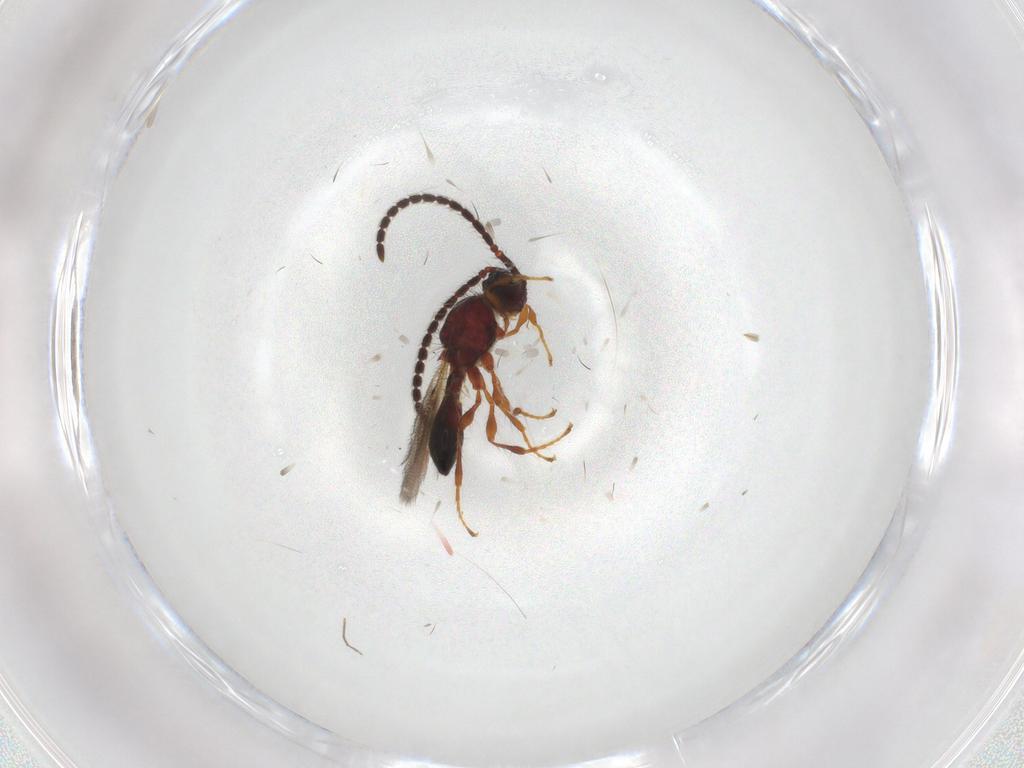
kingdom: Animalia
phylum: Arthropoda
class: Insecta
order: Hymenoptera
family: Diapriidae
